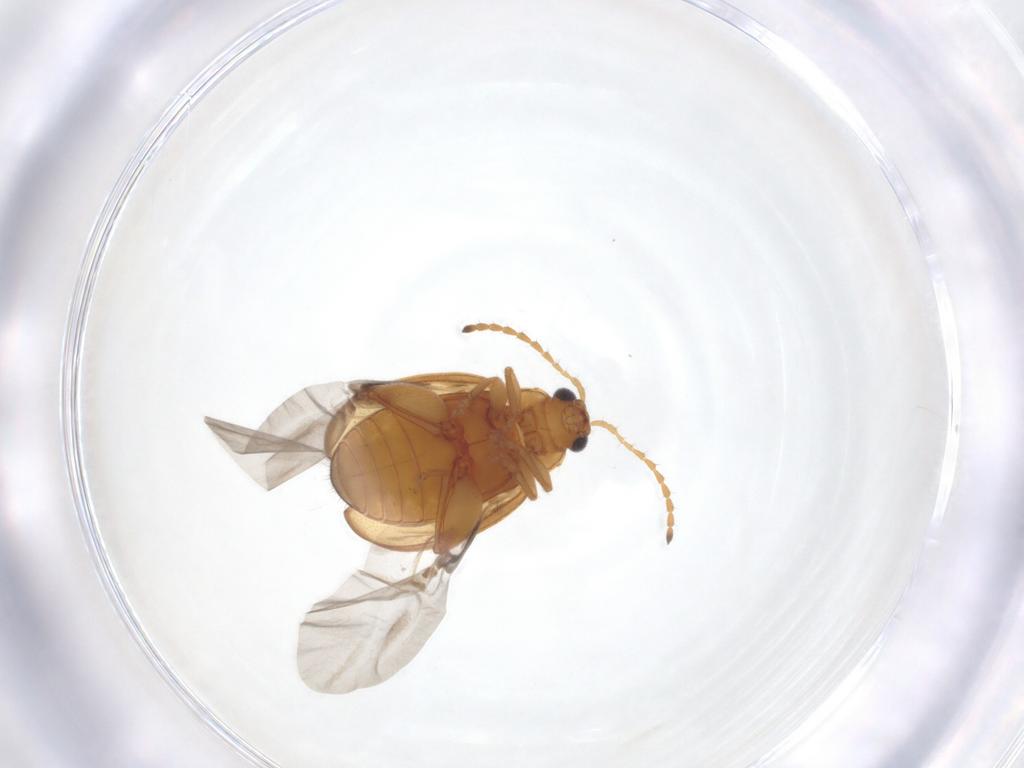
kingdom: Animalia
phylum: Arthropoda
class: Insecta
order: Coleoptera
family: Chrysomelidae
